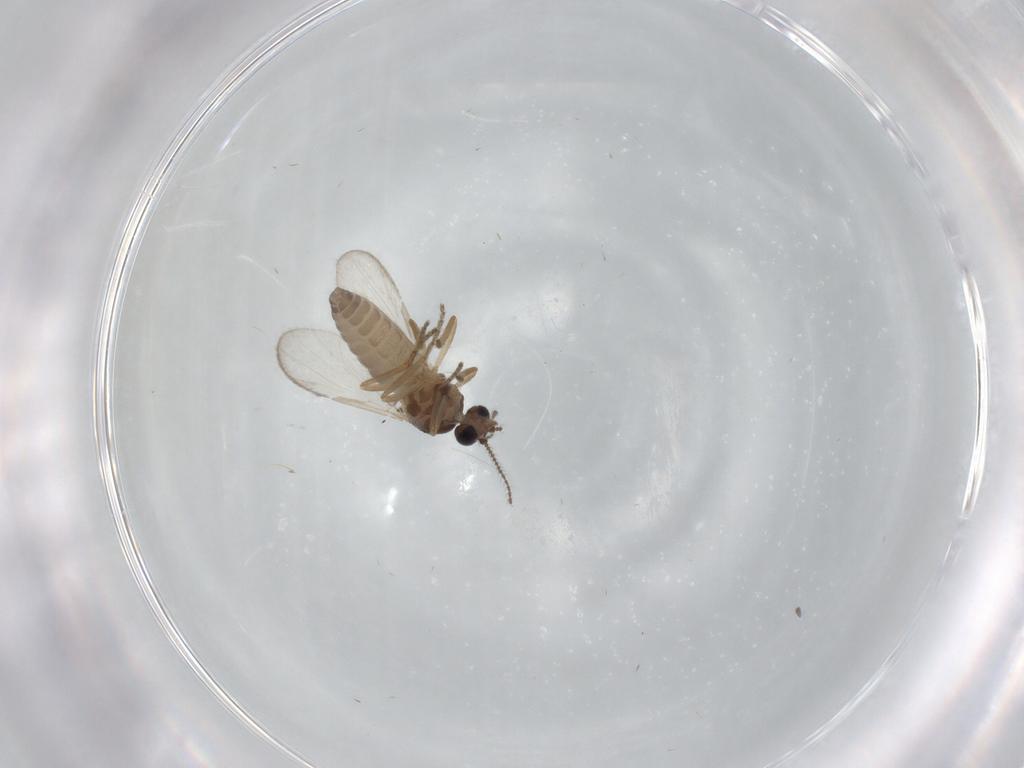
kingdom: Animalia
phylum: Arthropoda
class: Insecta
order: Diptera
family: Ceratopogonidae
